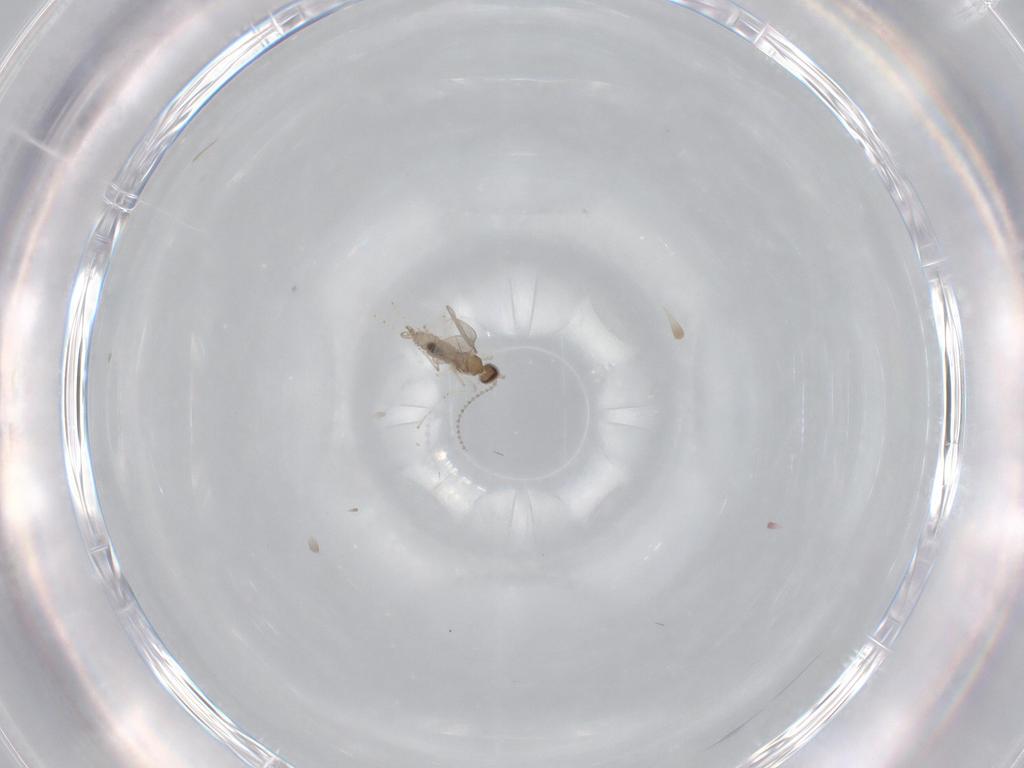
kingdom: Animalia
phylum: Arthropoda
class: Insecta
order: Diptera
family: Cecidomyiidae
